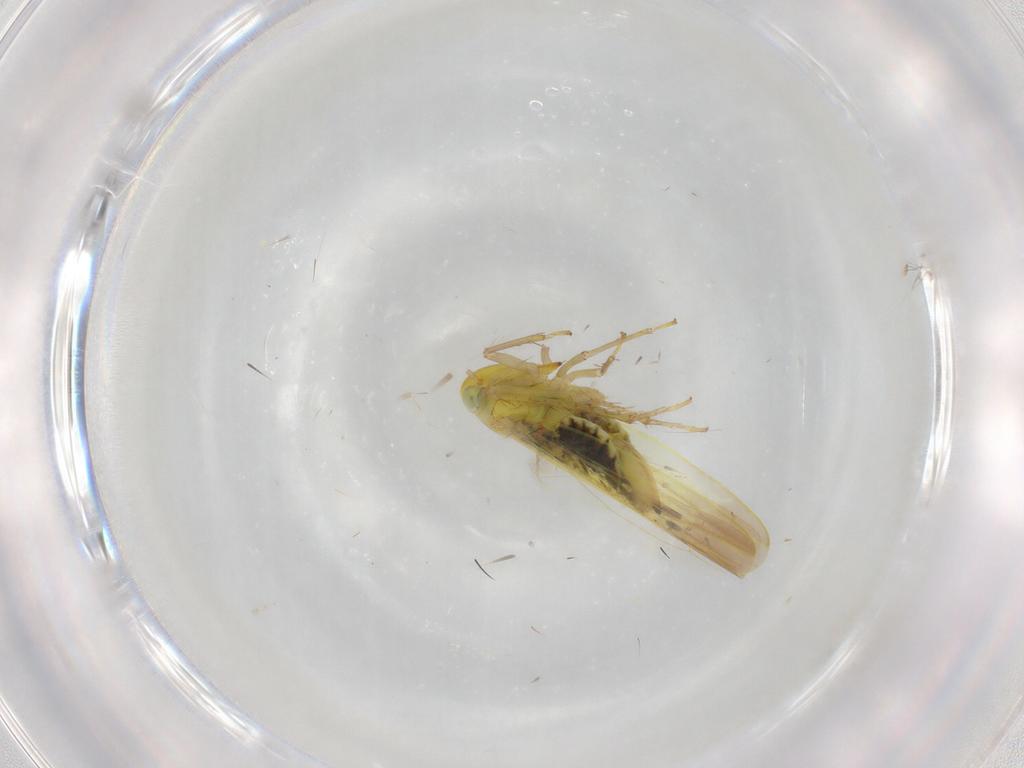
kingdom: Animalia
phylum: Arthropoda
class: Insecta
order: Hemiptera
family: Cicadellidae
